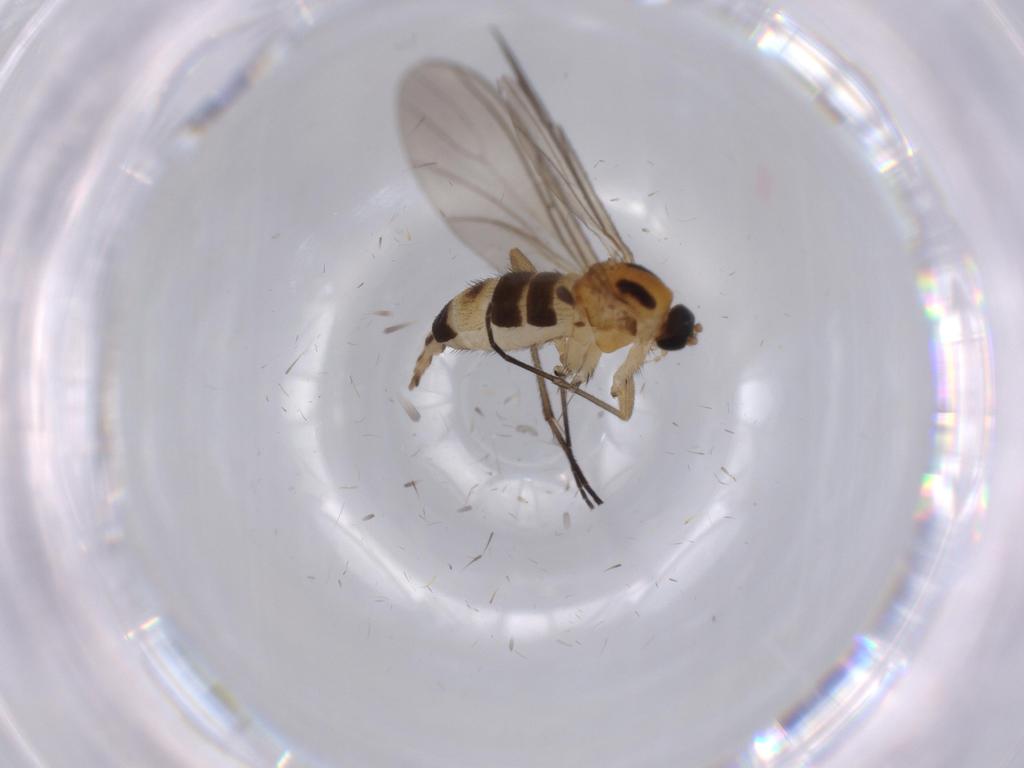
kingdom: Animalia
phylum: Arthropoda
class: Insecta
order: Diptera
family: Sciaridae
